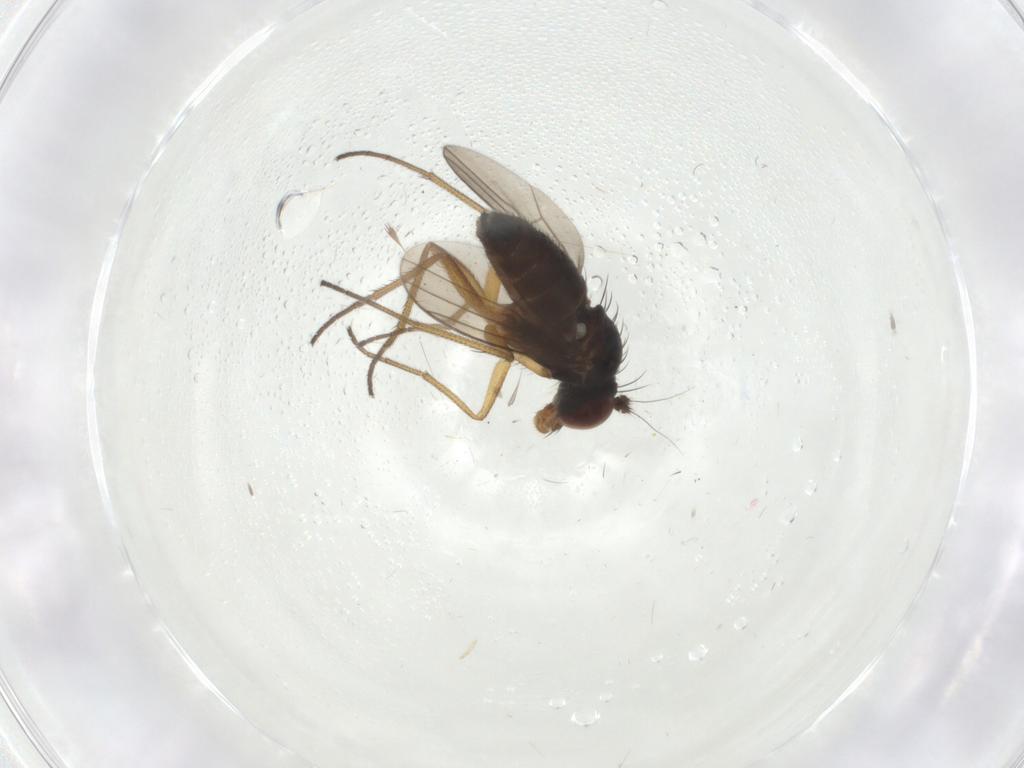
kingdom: Animalia
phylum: Arthropoda
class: Insecta
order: Diptera
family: Dolichopodidae
